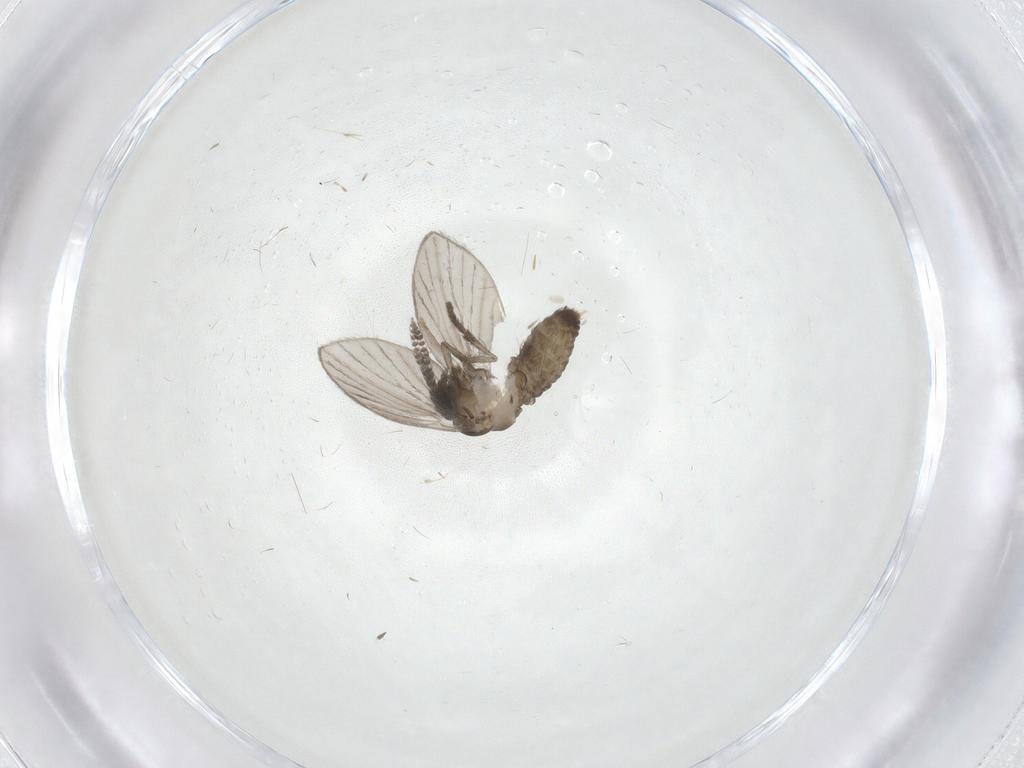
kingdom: Animalia
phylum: Arthropoda
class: Insecta
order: Diptera
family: Psychodidae
